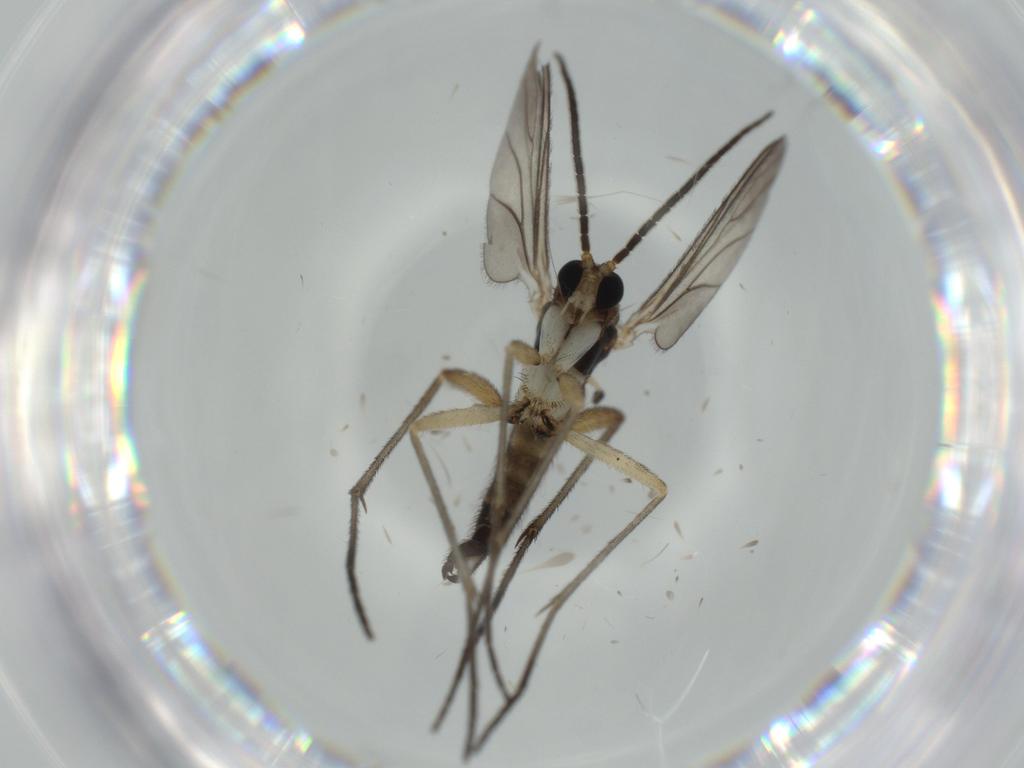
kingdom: Animalia
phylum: Arthropoda
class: Insecta
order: Diptera
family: Sciaridae
